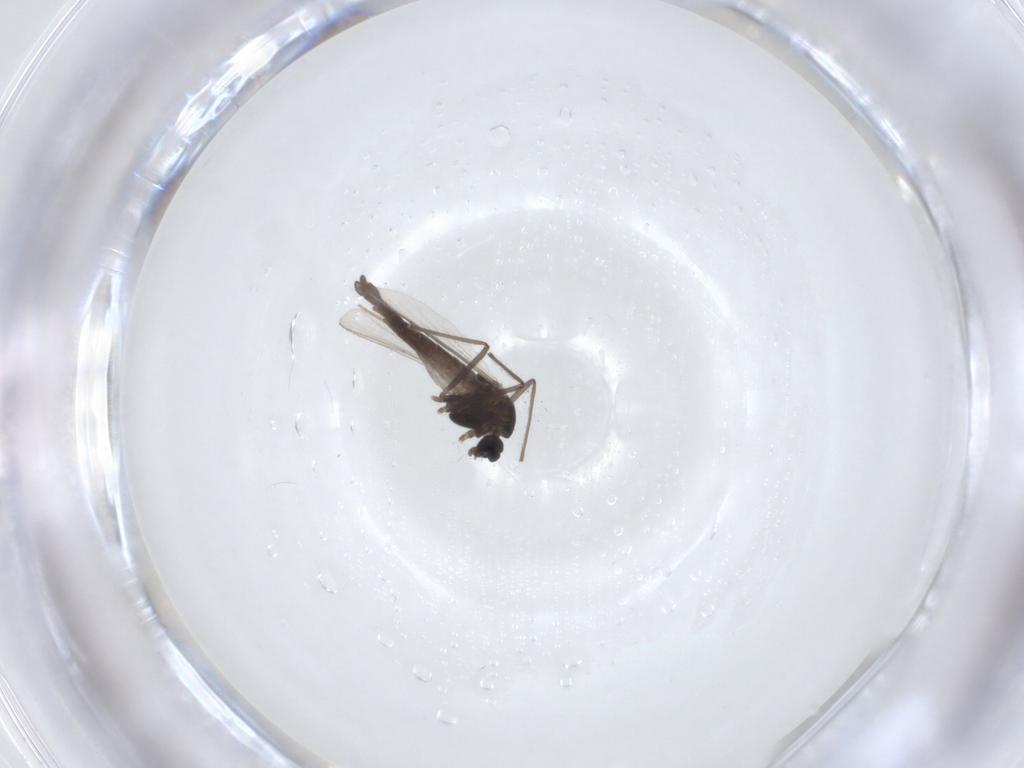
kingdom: Animalia
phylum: Arthropoda
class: Insecta
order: Diptera
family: Chironomidae
